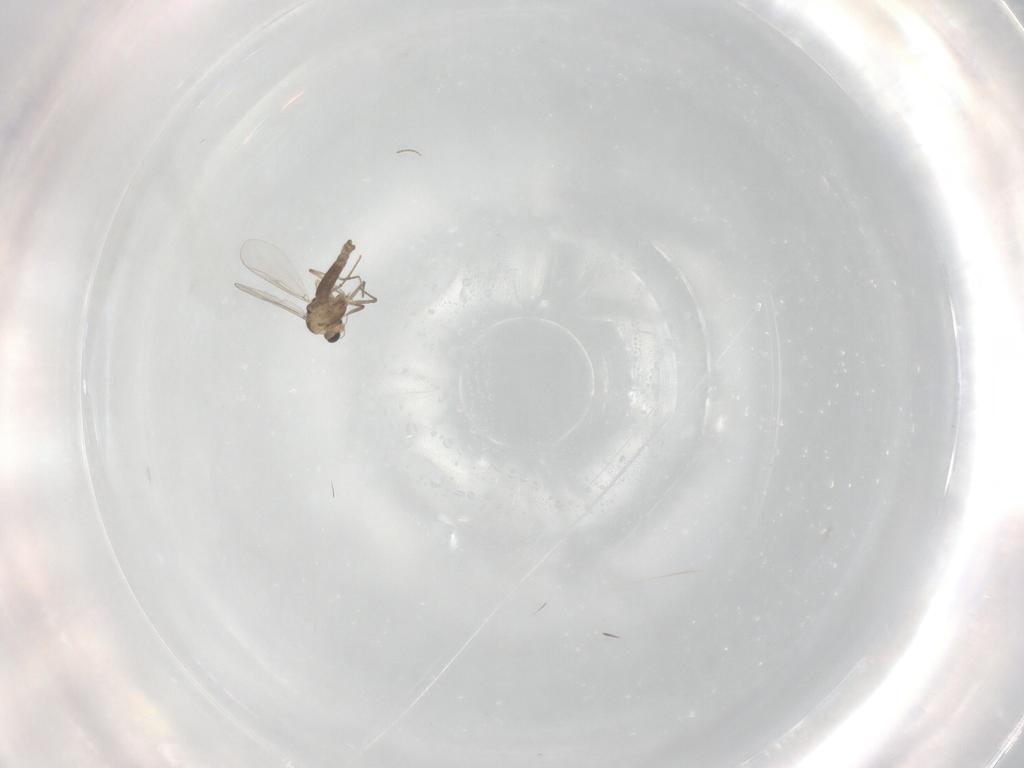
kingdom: Animalia
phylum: Arthropoda
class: Insecta
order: Diptera
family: Cecidomyiidae
